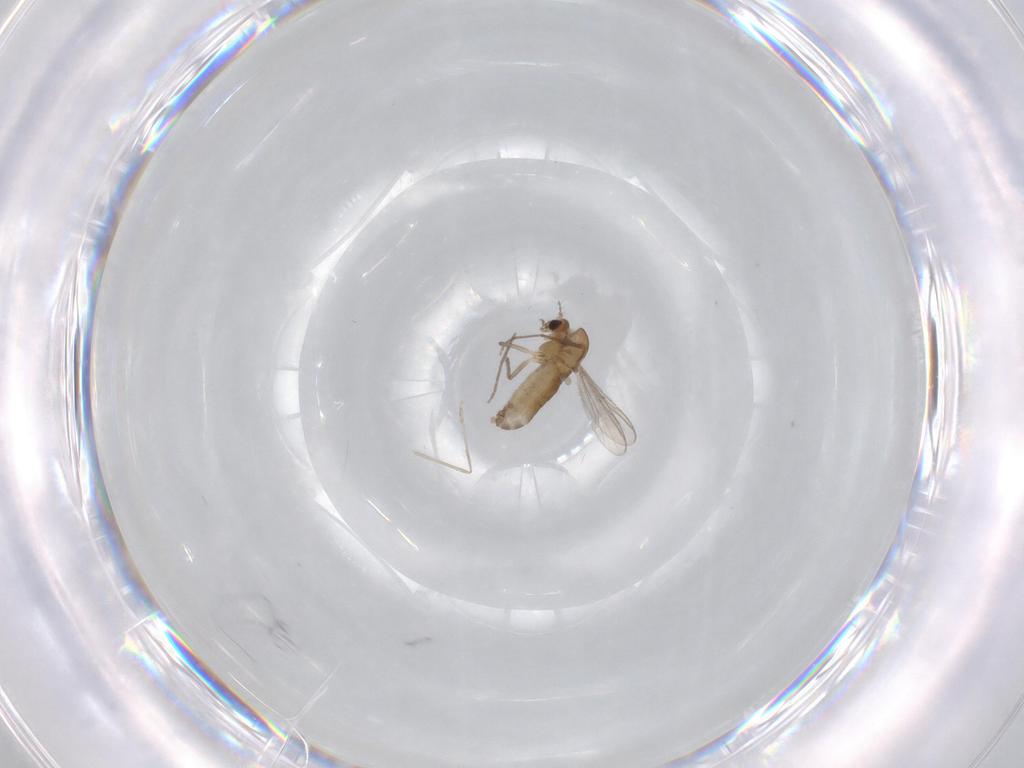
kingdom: Animalia
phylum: Arthropoda
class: Insecta
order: Diptera
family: Chironomidae
